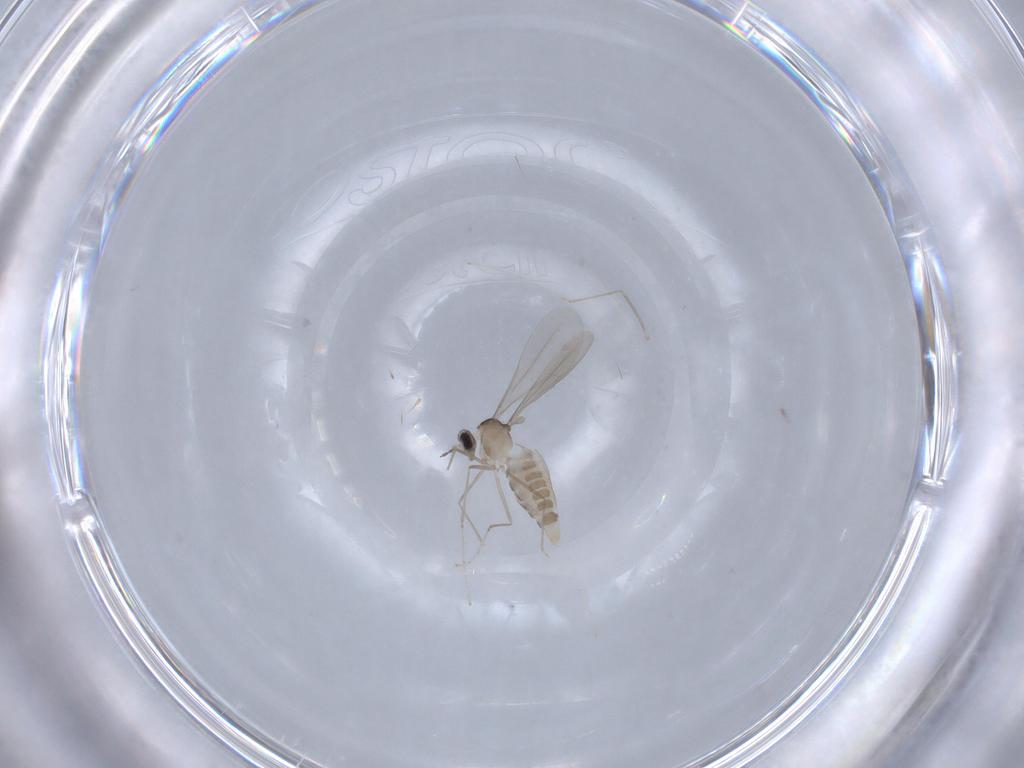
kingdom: Animalia
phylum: Arthropoda
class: Insecta
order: Diptera
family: Cecidomyiidae
